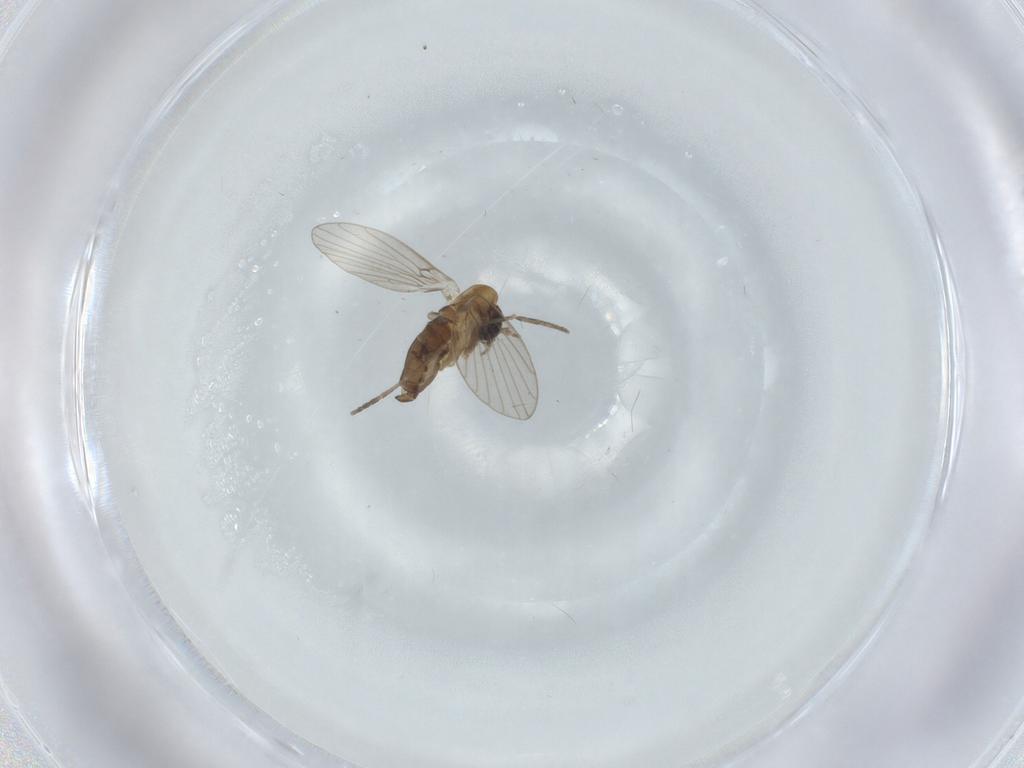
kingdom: Animalia
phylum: Arthropoda
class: Insecta
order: Diptera
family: Psychodidae
